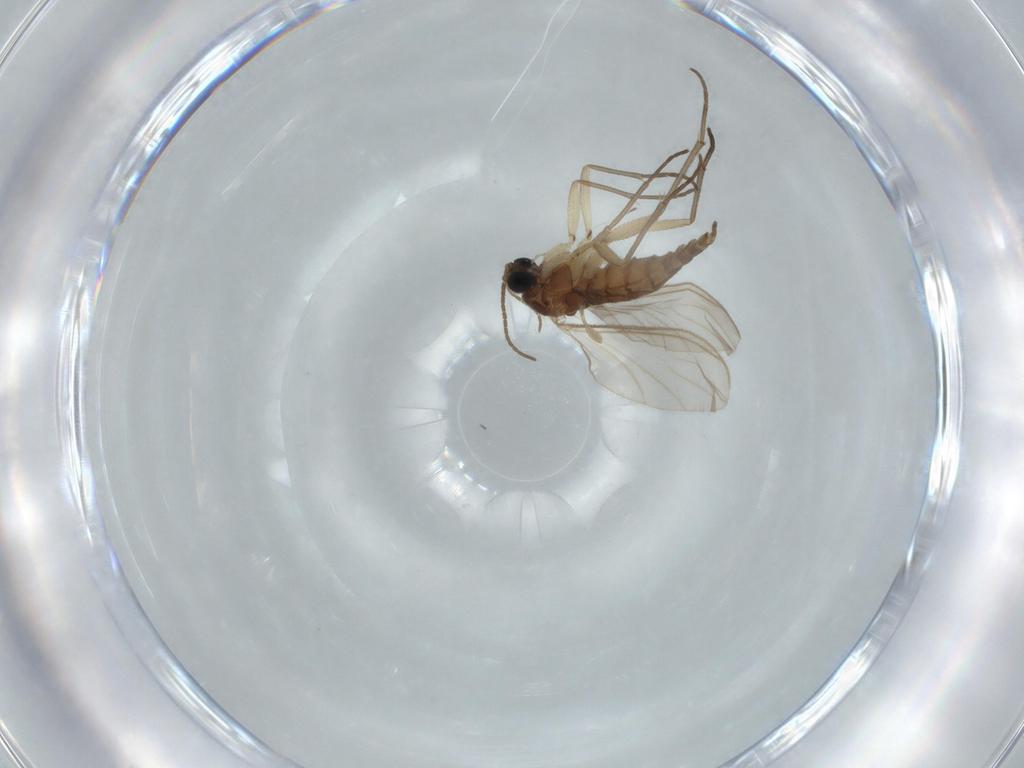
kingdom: Animalia
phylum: Arthropoda
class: Insecta
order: Diptera
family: Sciaridae
